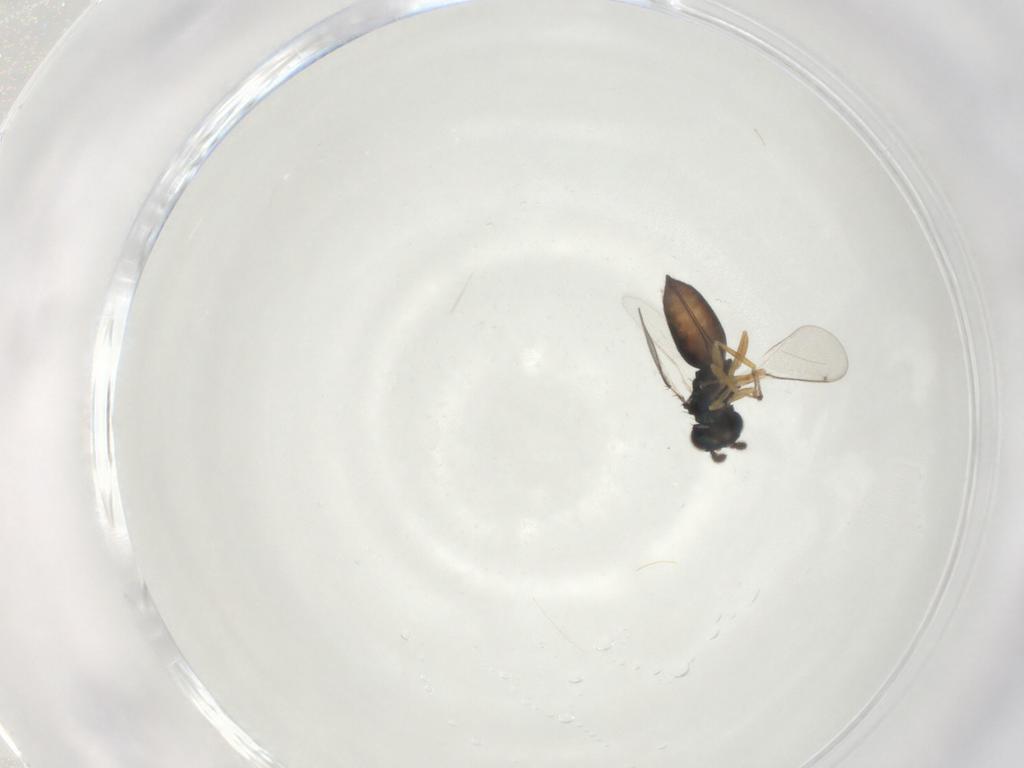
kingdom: Animalia
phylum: Arthropoda
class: Insecta
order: Hymenoptera
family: Eulophidae
